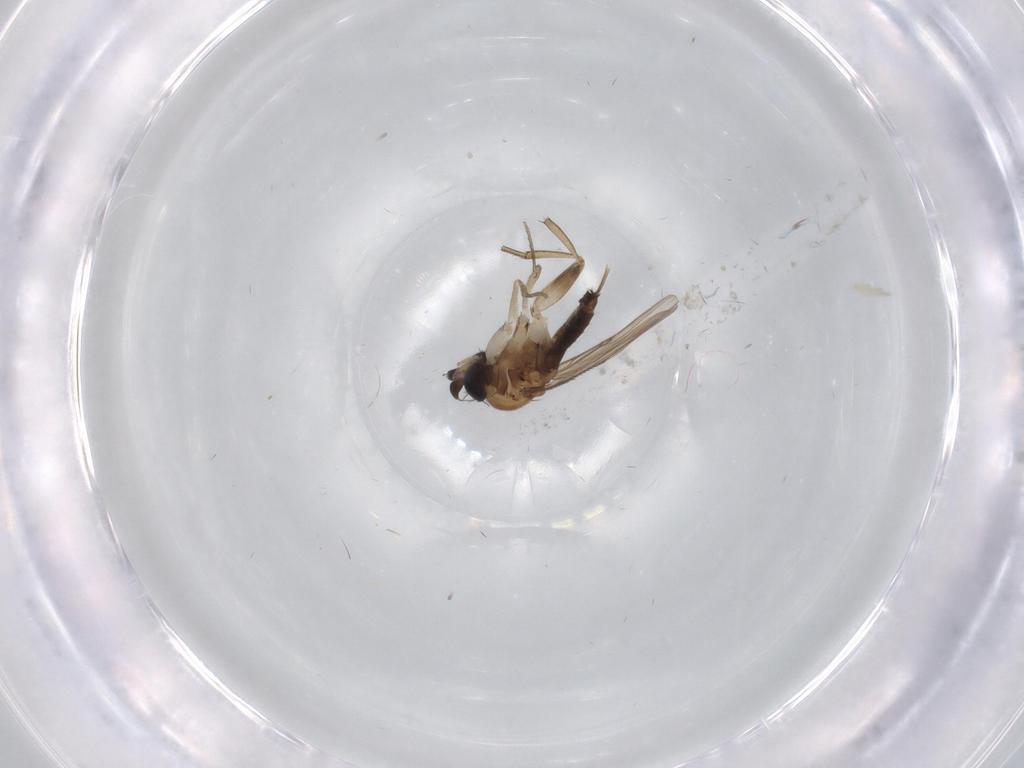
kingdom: Animalia
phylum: Arthropoda
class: Insecta
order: Diptera
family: Phoridae
